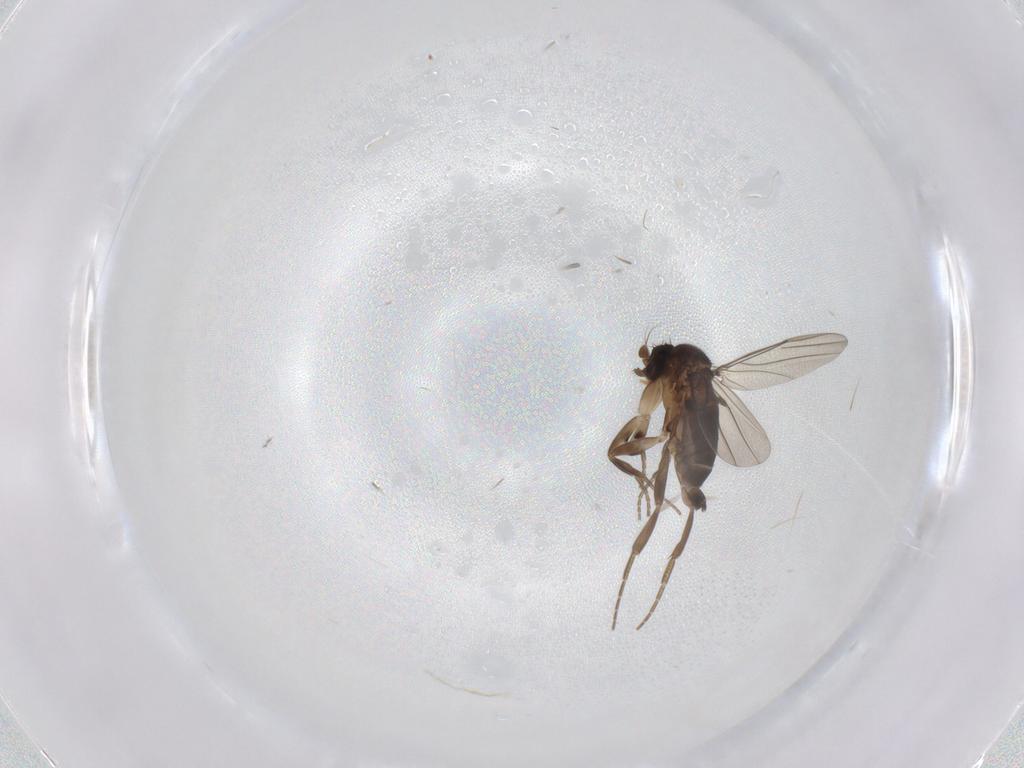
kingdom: Animalia
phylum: Arthropoda
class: Insecta
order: Diptera
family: Phoridae
